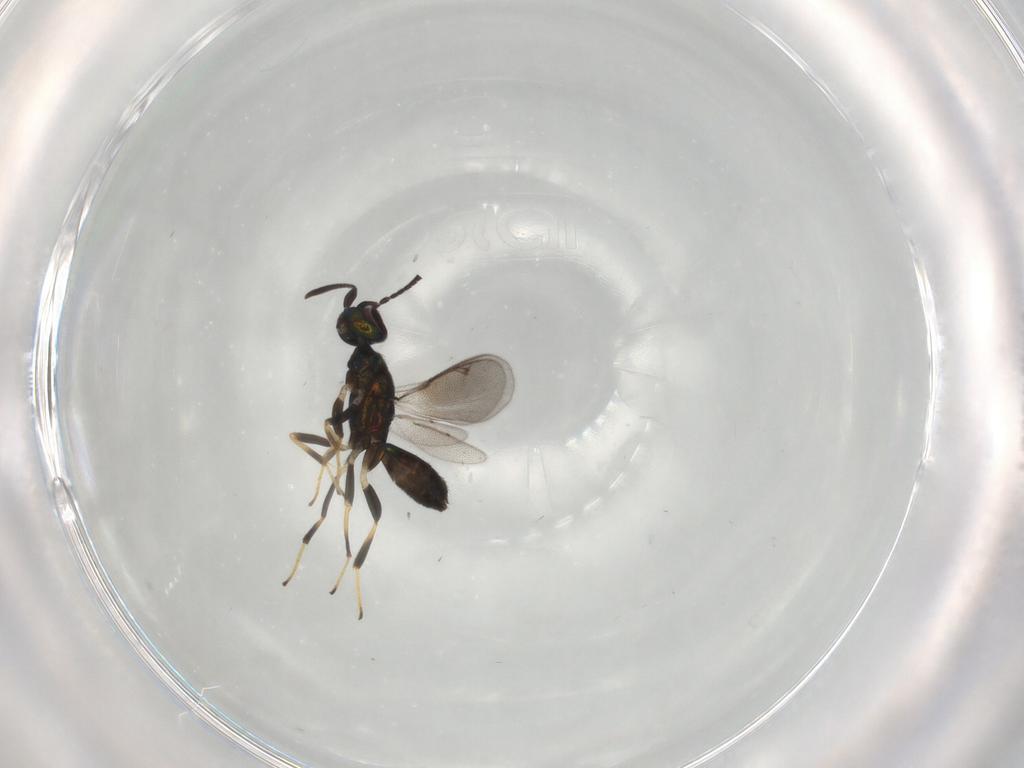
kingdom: Animalia
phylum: Arthropoda
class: Insecta
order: Hymenoptera
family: Eupelmidae
